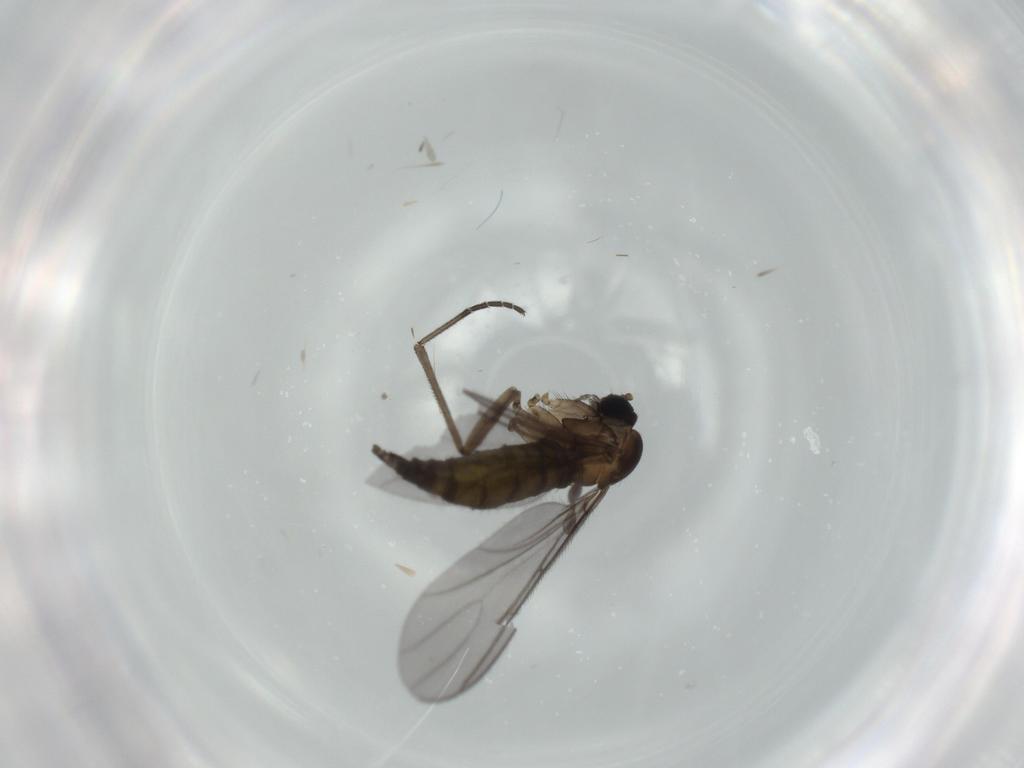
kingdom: Animalia
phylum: Arthropoda
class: Insecta
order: Diptera
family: Sciaridae
